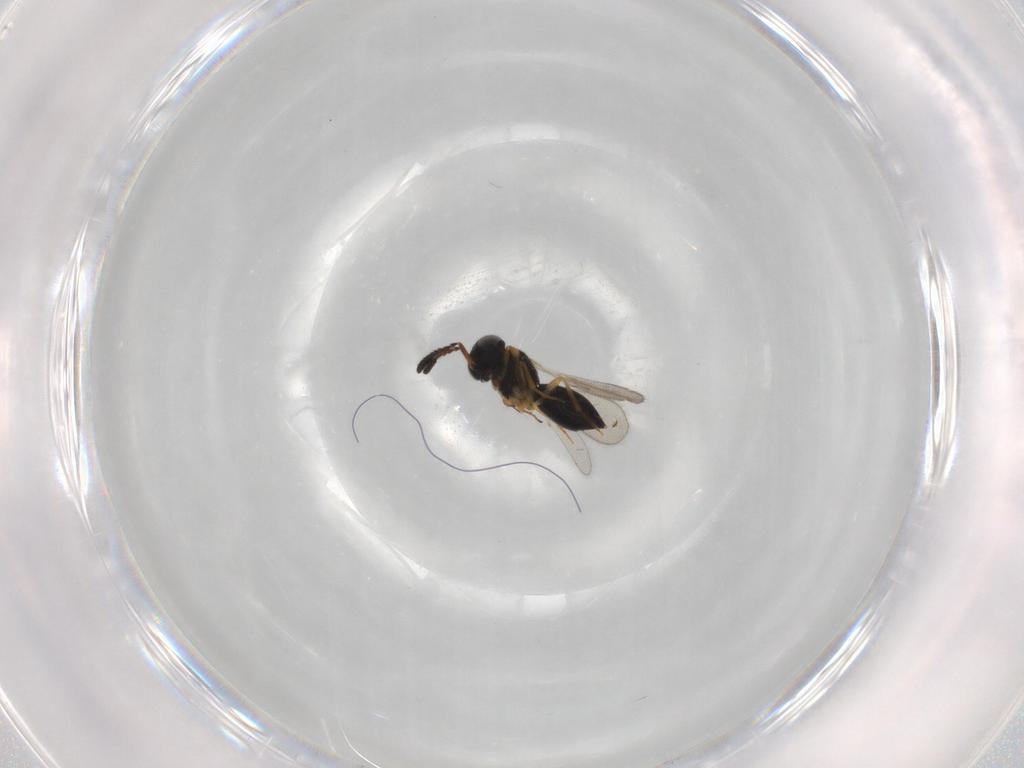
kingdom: Animalia
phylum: Arthropoda
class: Insecta
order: Hymenoptera
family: Scelionidae
